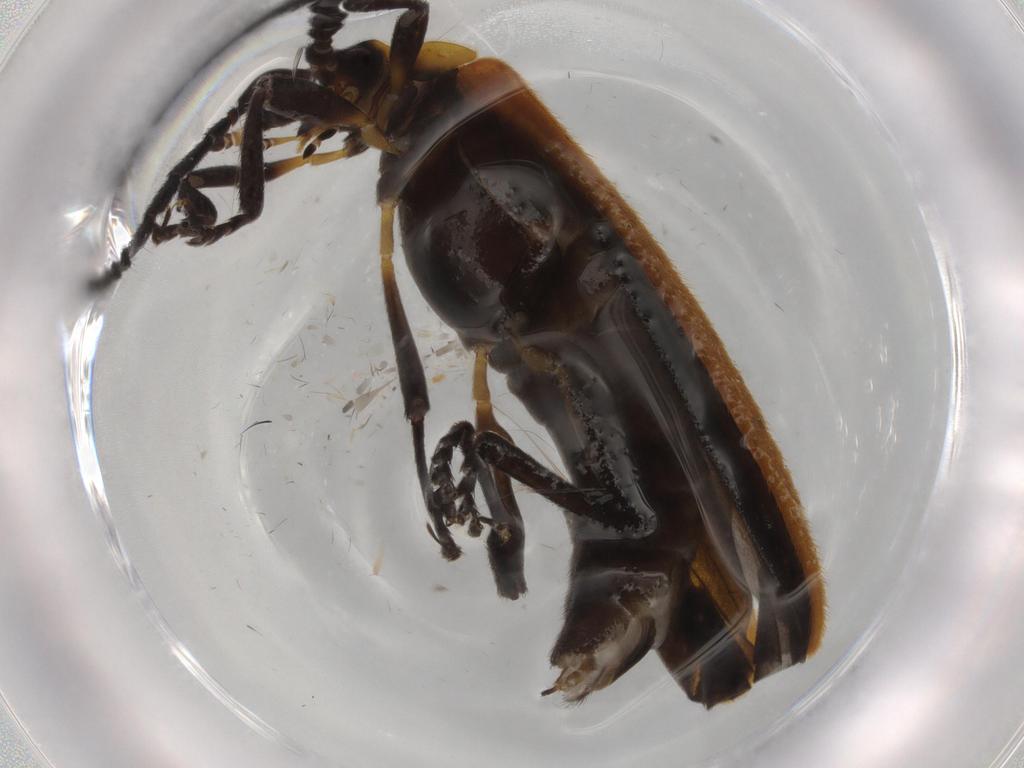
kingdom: Animalia
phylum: Arthropoda
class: Insecta
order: Coleoptera
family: Lycidae
